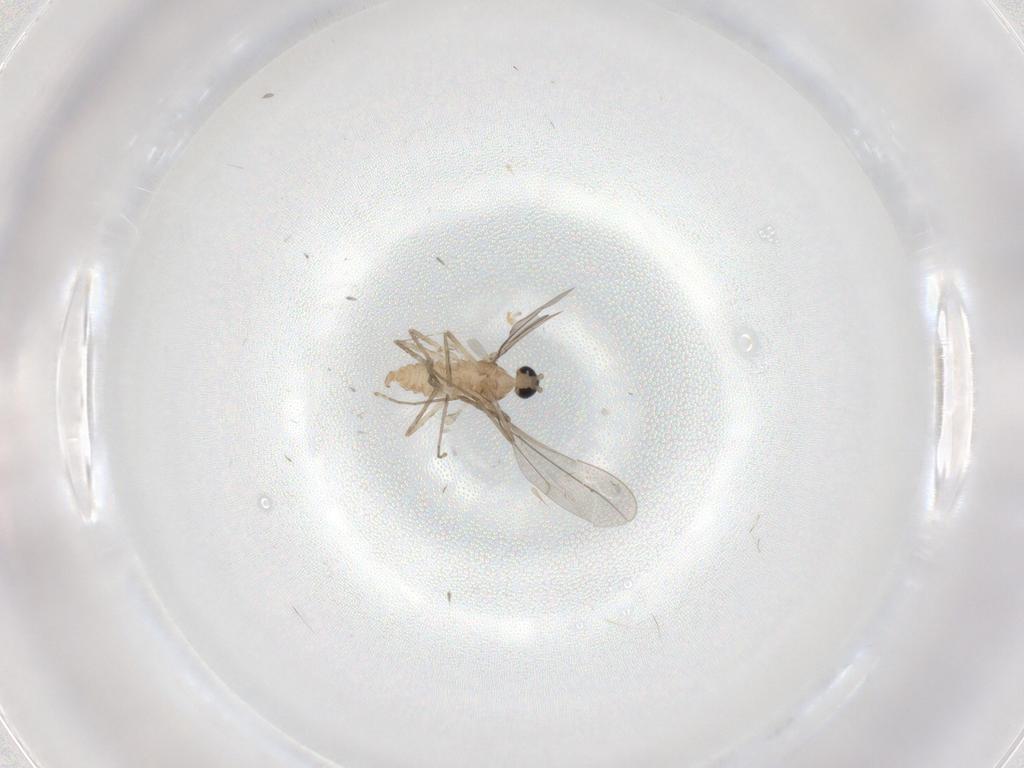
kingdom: Animalia
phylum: Arthropoda
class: Insecta
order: Diptera
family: Cecidomyiidae
